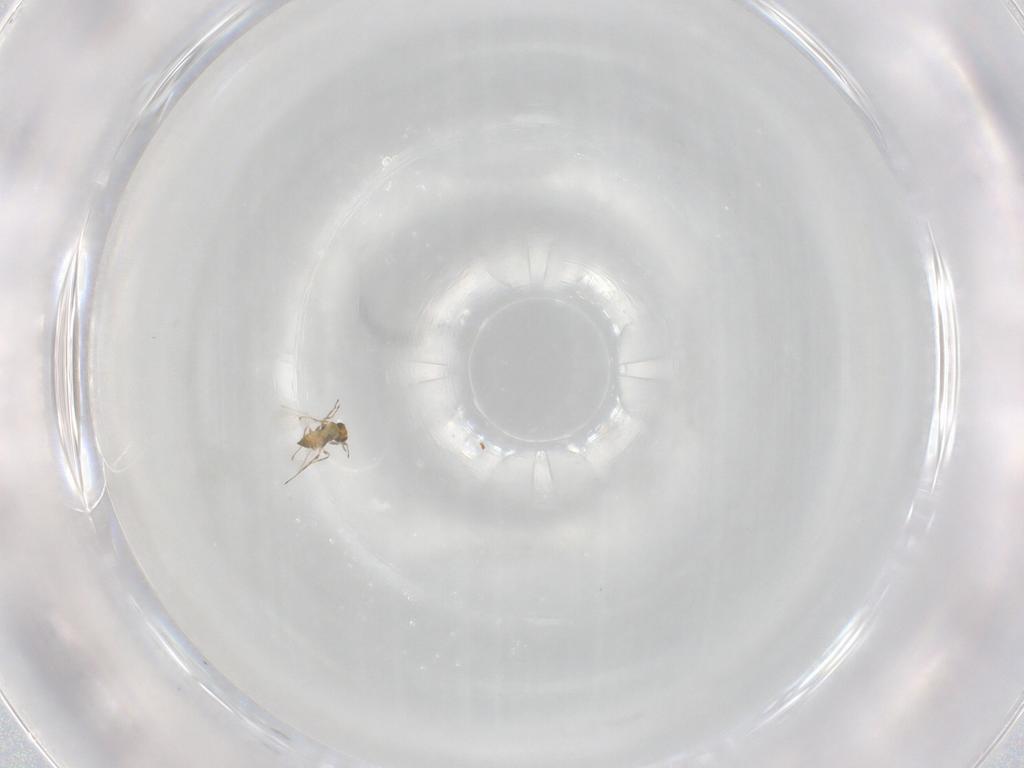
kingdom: Animalia
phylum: Arthropoda
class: Insecta
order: Hymenoptera
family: Trichogrammatidae
